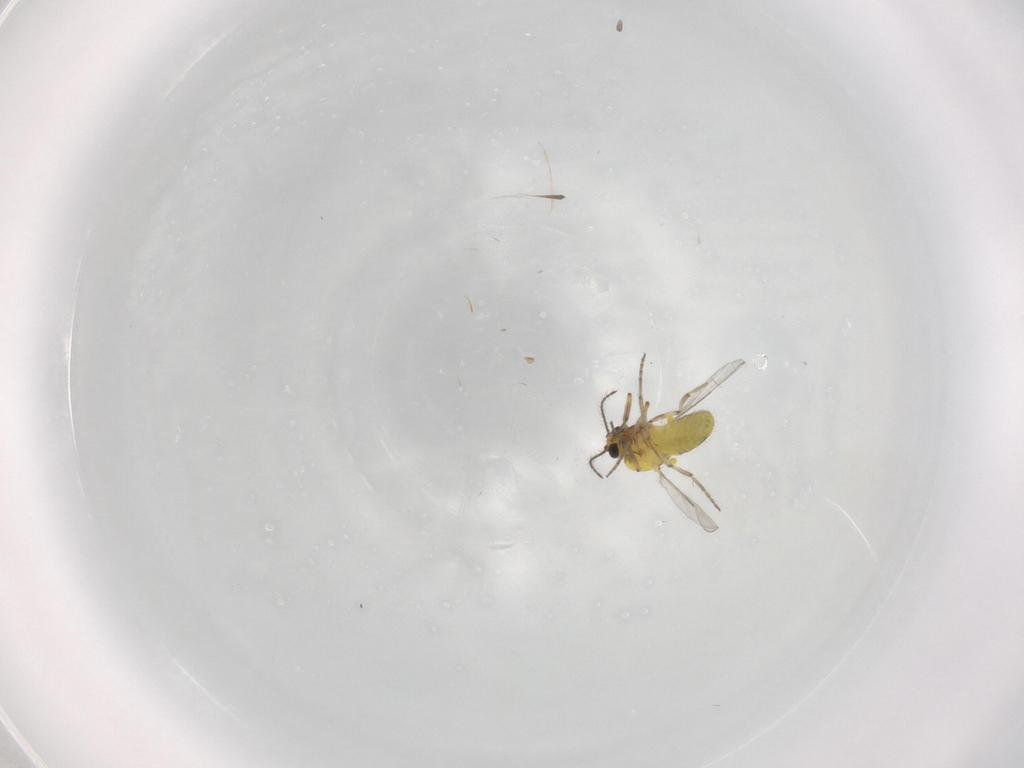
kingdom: Animalia
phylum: Arthropoda
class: Insecta
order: Diptera
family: Ceratopogonidae
